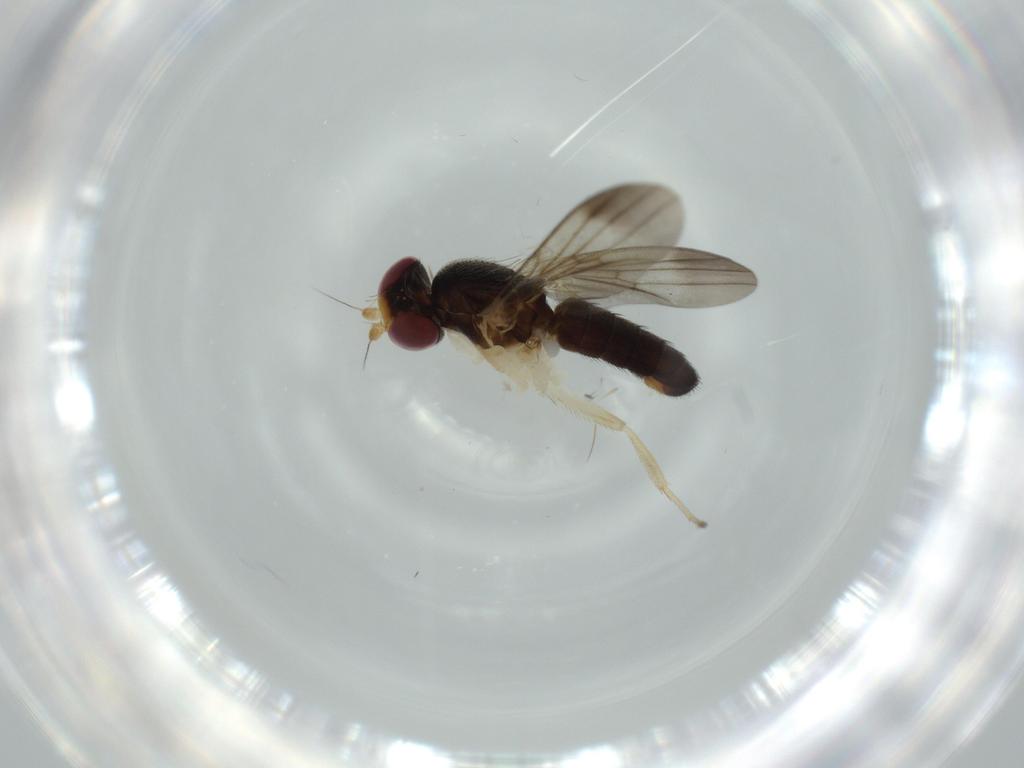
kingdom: Animalia
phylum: Arthropoda
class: Insecta
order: Diptera
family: Clusiidae
